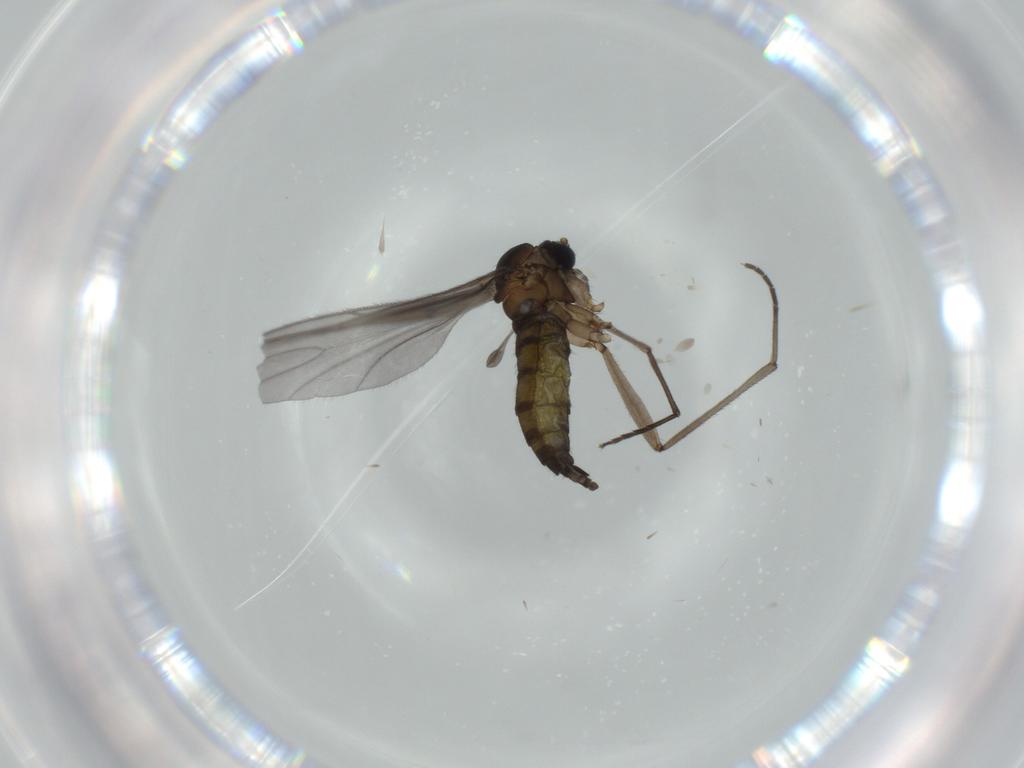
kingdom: Animalia
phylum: Arthropoda
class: Insecta
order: Diptera
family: Sciaridae
